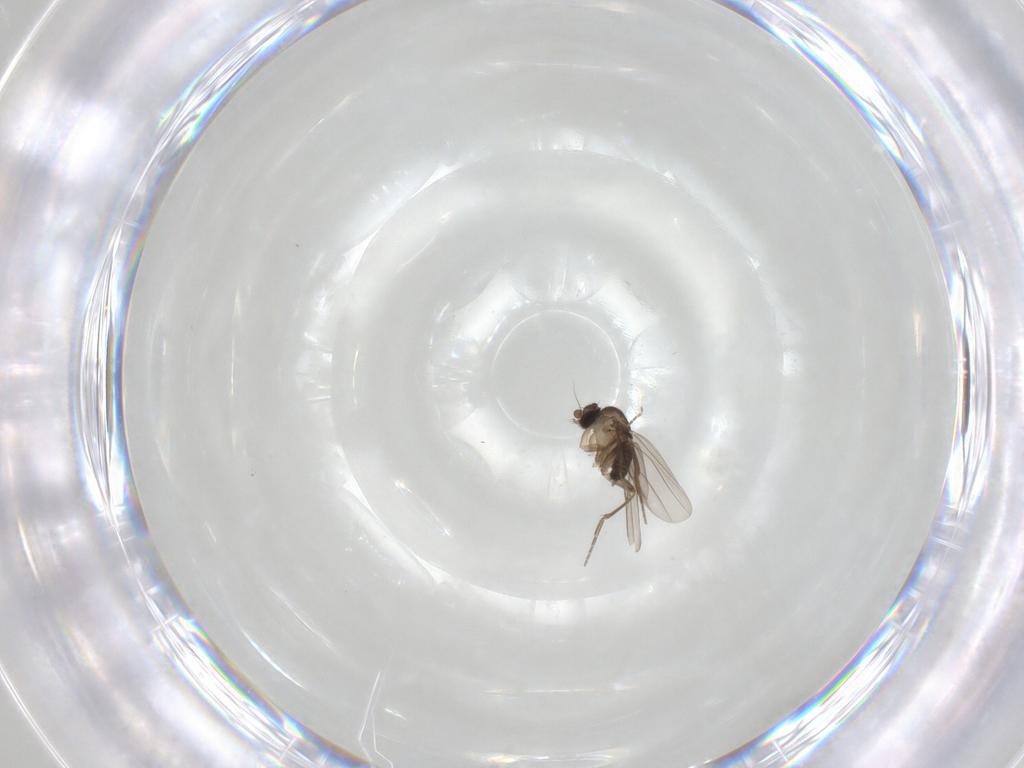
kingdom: Animalia
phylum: Arthropoda
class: Insecta
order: Diptera
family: Phoridae
